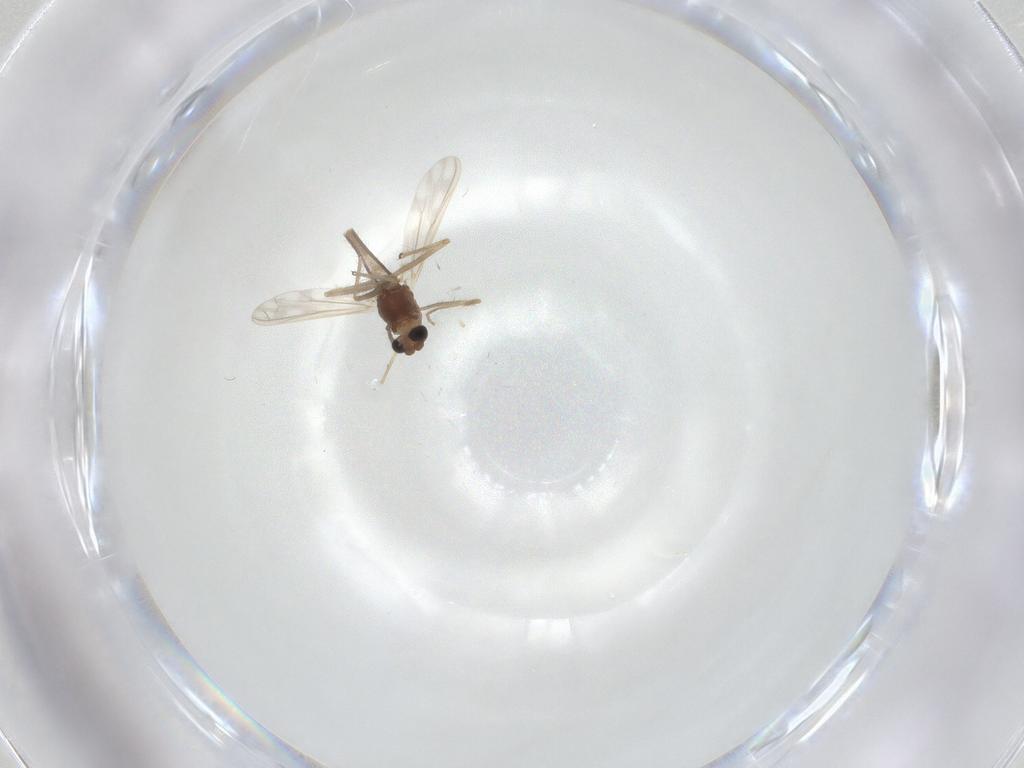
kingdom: Animalia
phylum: Arthropoda
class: Insecta
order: Diptera
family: Chironomidae
